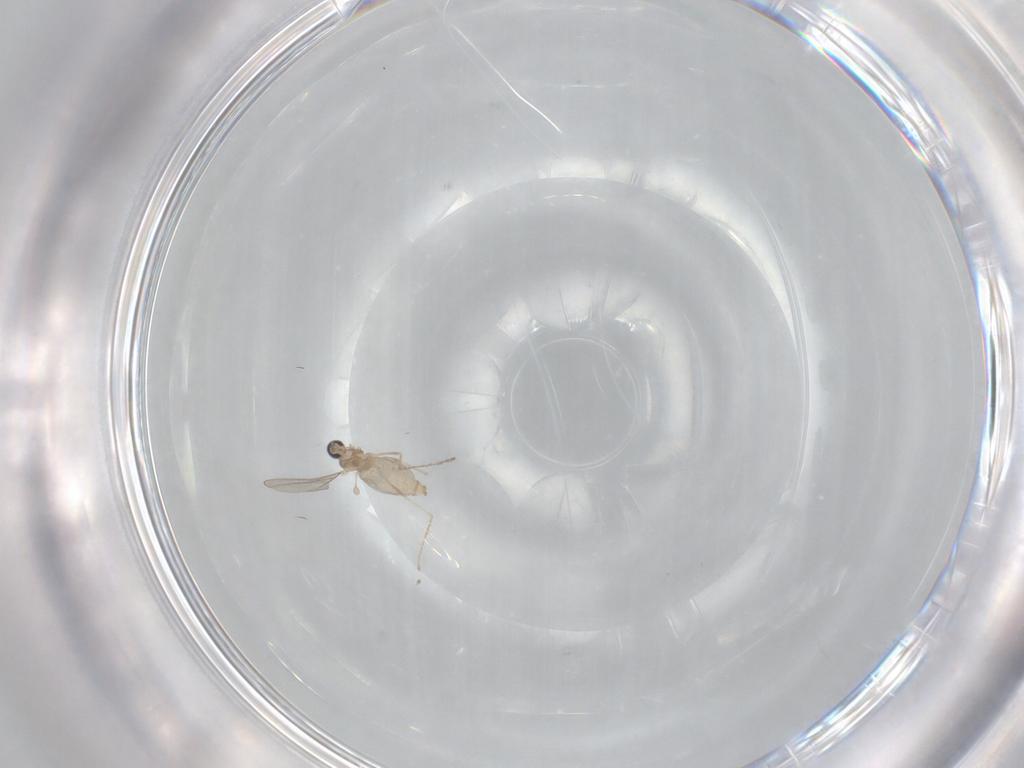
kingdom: Animalia
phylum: Arthropoda
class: Insecta
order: Diptera
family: Cecidomyiidae
